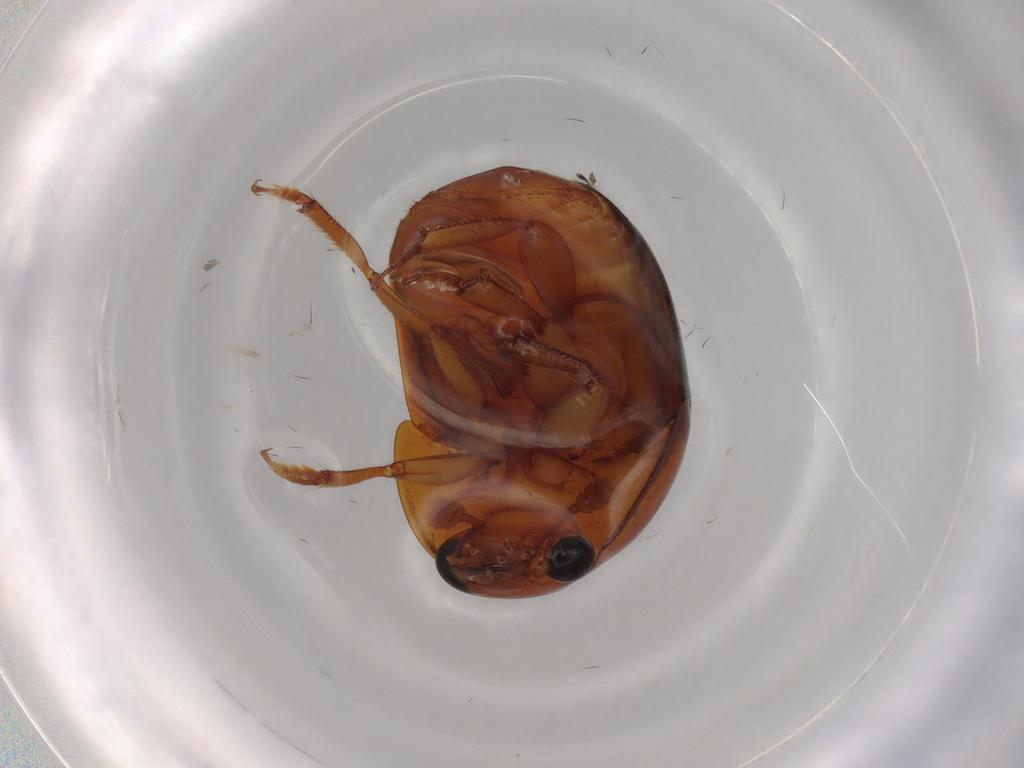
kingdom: Animalia
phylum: Arthropoda
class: Insecta
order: Coleoptera
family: Nitidulidae
